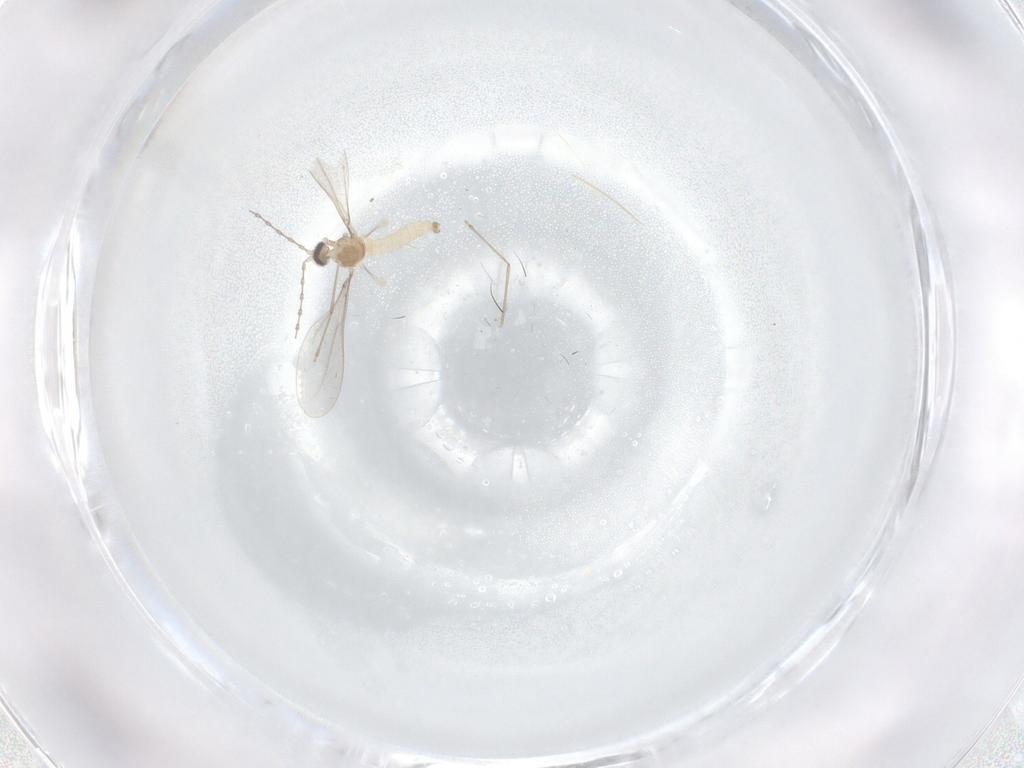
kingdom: Animalia
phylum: Arthropoda
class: Insecta
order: Diptera
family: Cecidomyiidae
